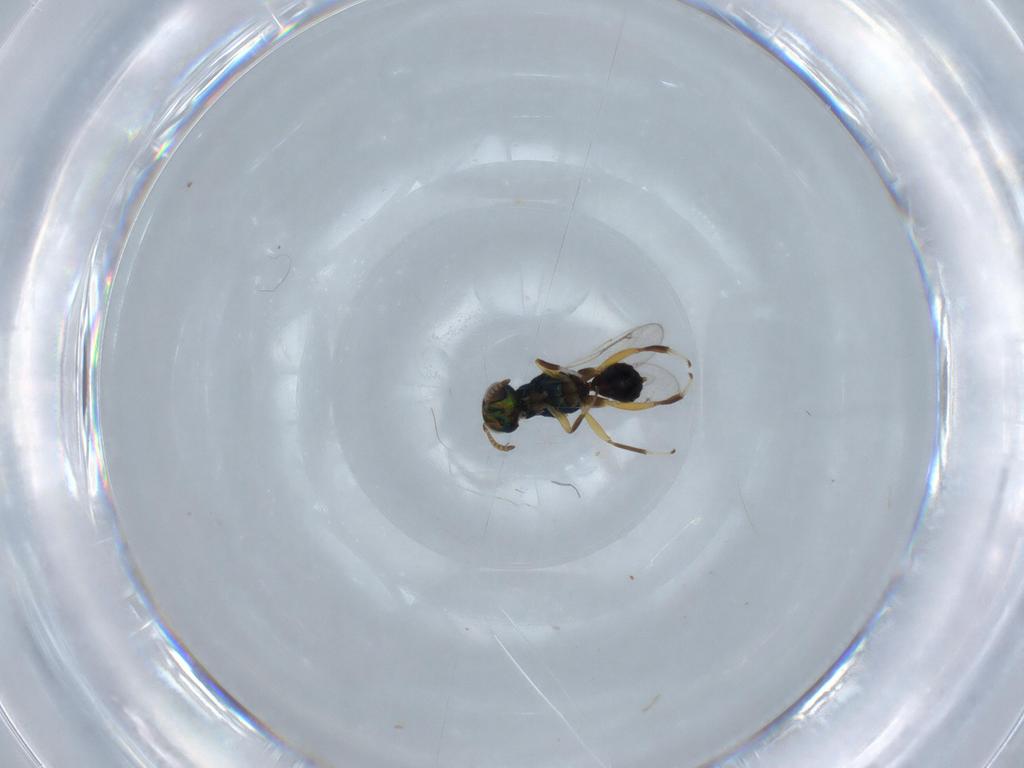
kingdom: Animalia
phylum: Arthropoda
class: Insecta
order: Hymenoptera
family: Cleonyminae
